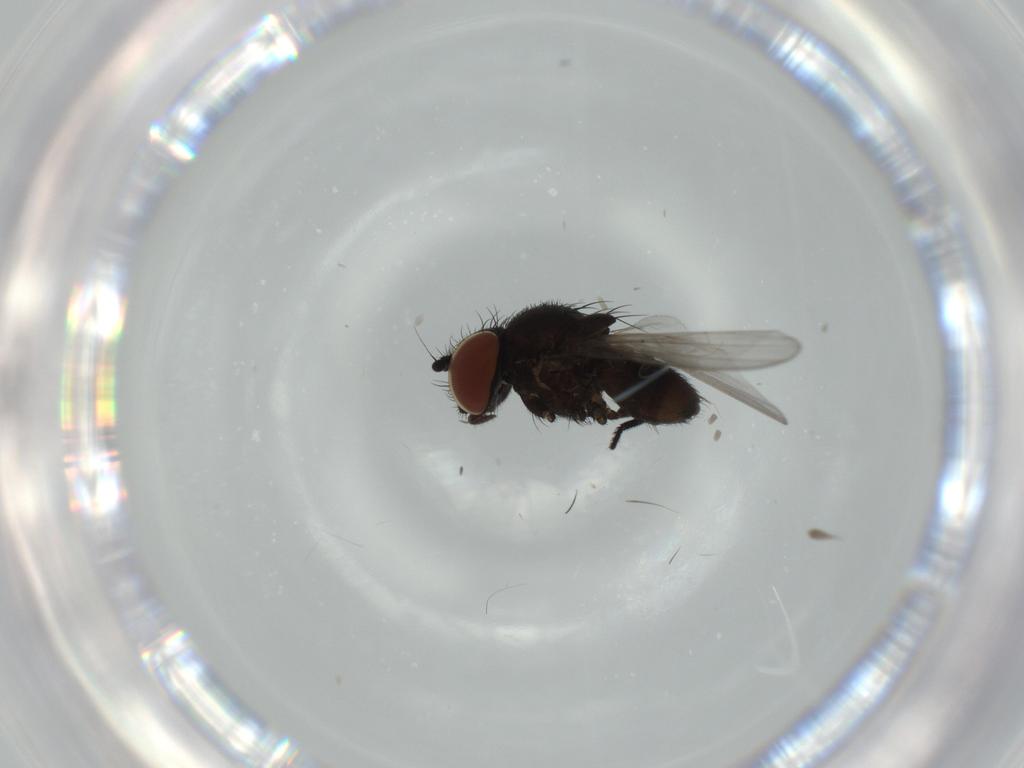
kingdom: Animalia
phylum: Arthropoda
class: Insecta
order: Diptera
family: Milichiidae
